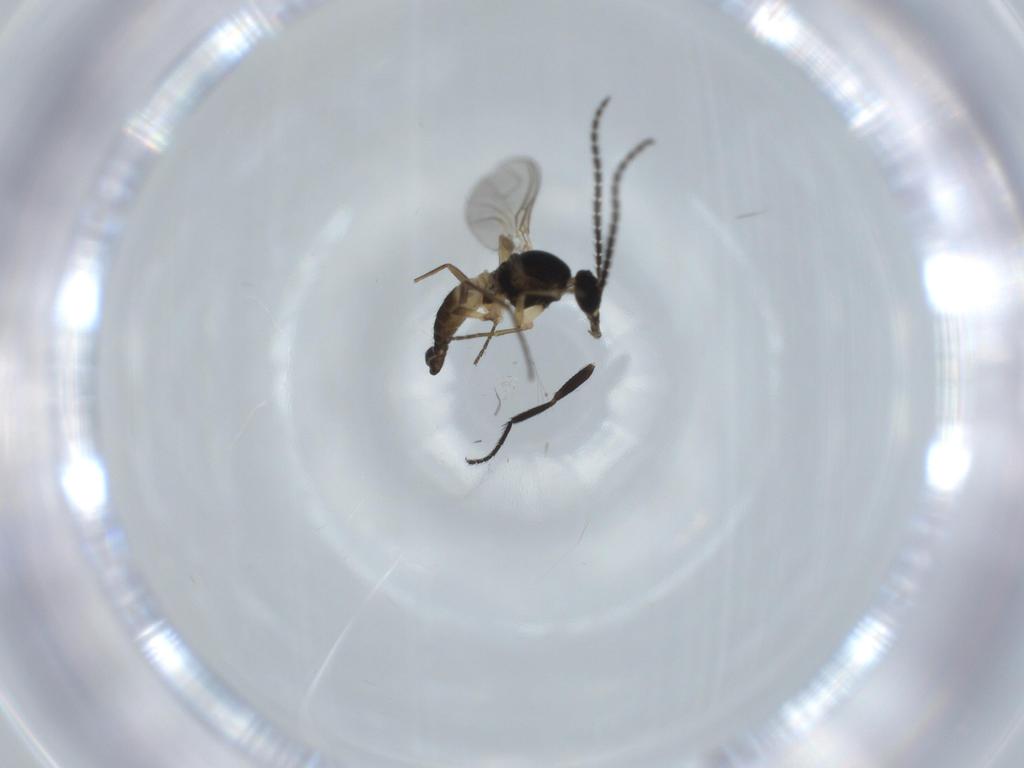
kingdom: Animalia
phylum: Arthropoda
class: Insecta
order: Diptera
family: Sciaridae
